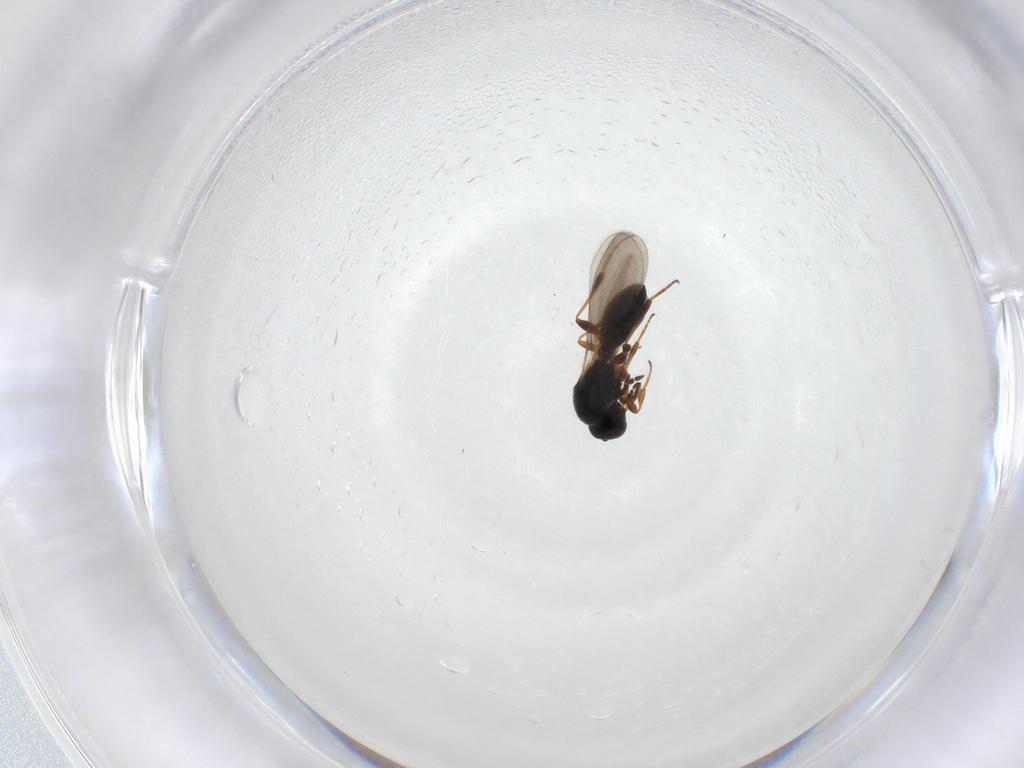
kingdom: Animalia
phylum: Arthropoda
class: Insecta
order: Hymenoptera
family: Platygastridae
